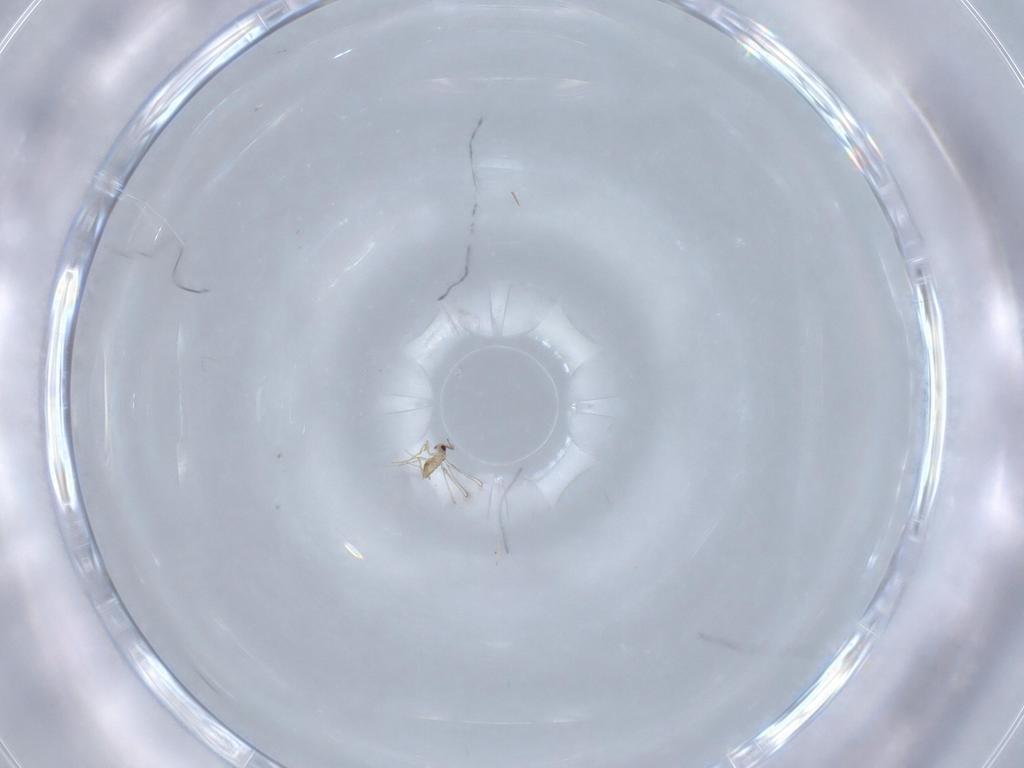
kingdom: Animalia
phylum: Arthropoda
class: Insecta
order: Hymenoptera
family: Mymaridae
